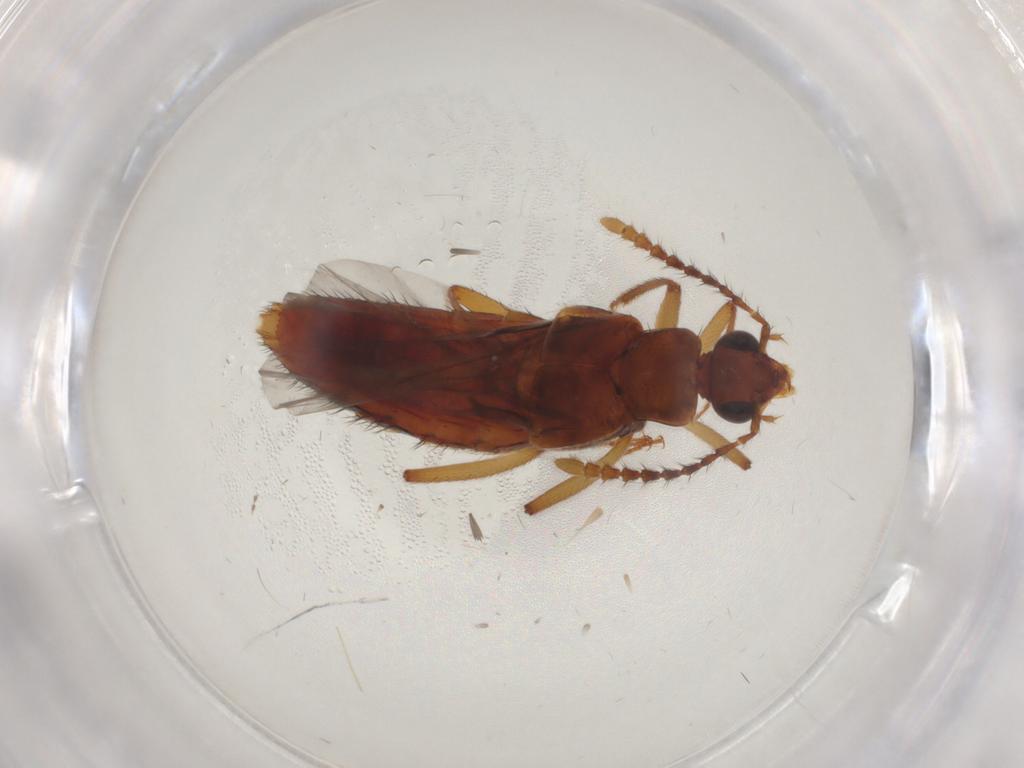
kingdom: Animalia
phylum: Arthropoda
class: Insecta
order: Coleoptera
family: Staphylinidae
